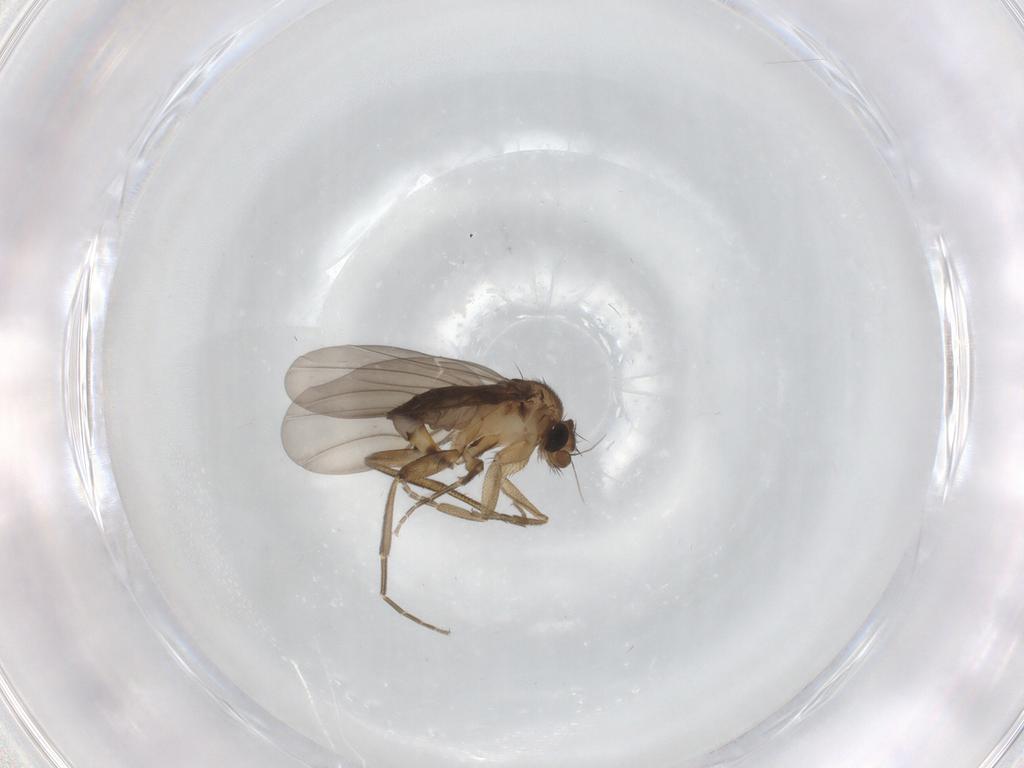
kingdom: Animalia
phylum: Arthropoda
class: Insecta
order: Diptera
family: Phoridae
